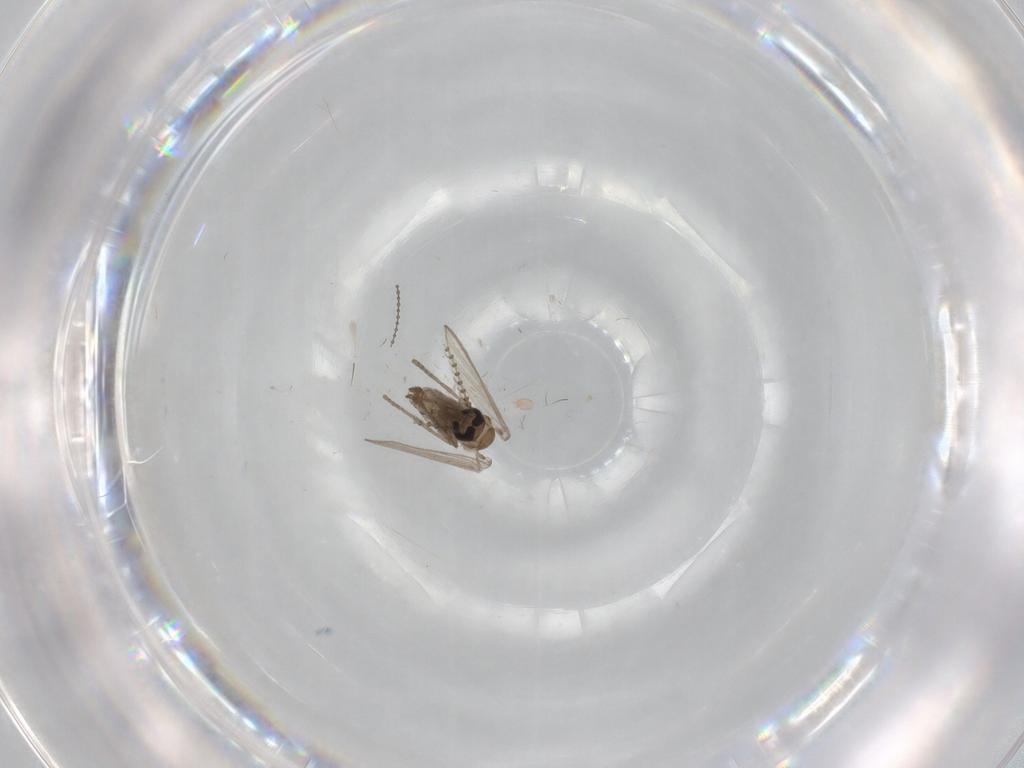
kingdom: Animalia
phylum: Arthropoda
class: Insecta
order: Diptera
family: Psychodidae
